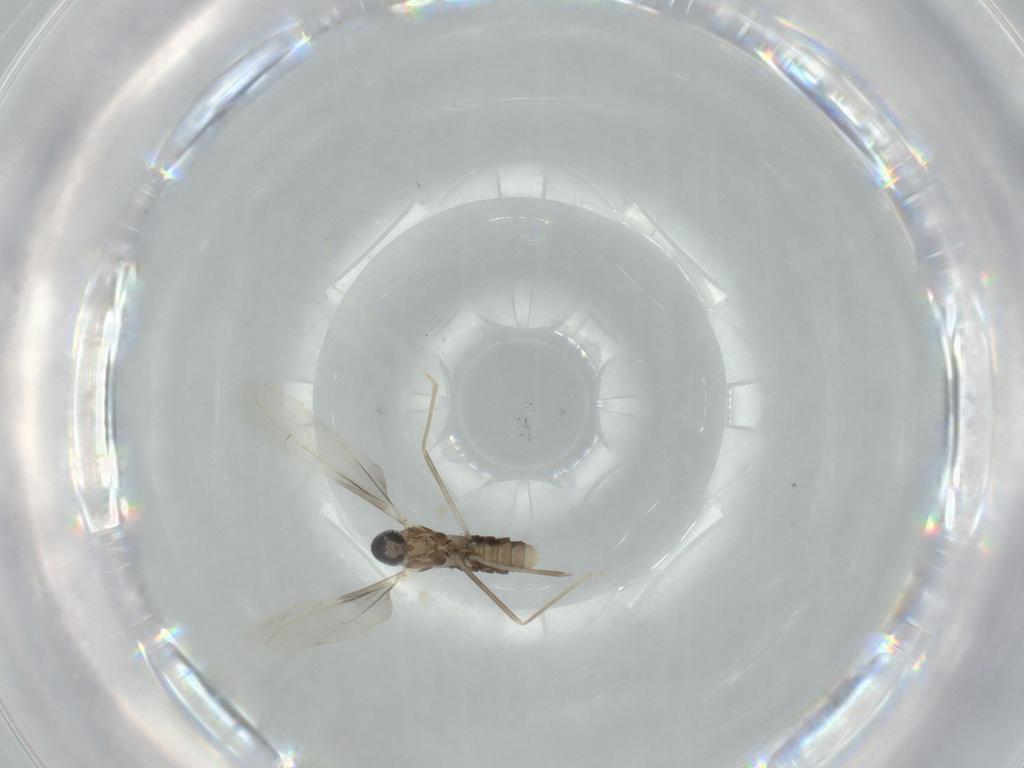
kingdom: Animalia
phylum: Arthropoda
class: Insecta
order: Diptera
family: Cecidomyiidae
